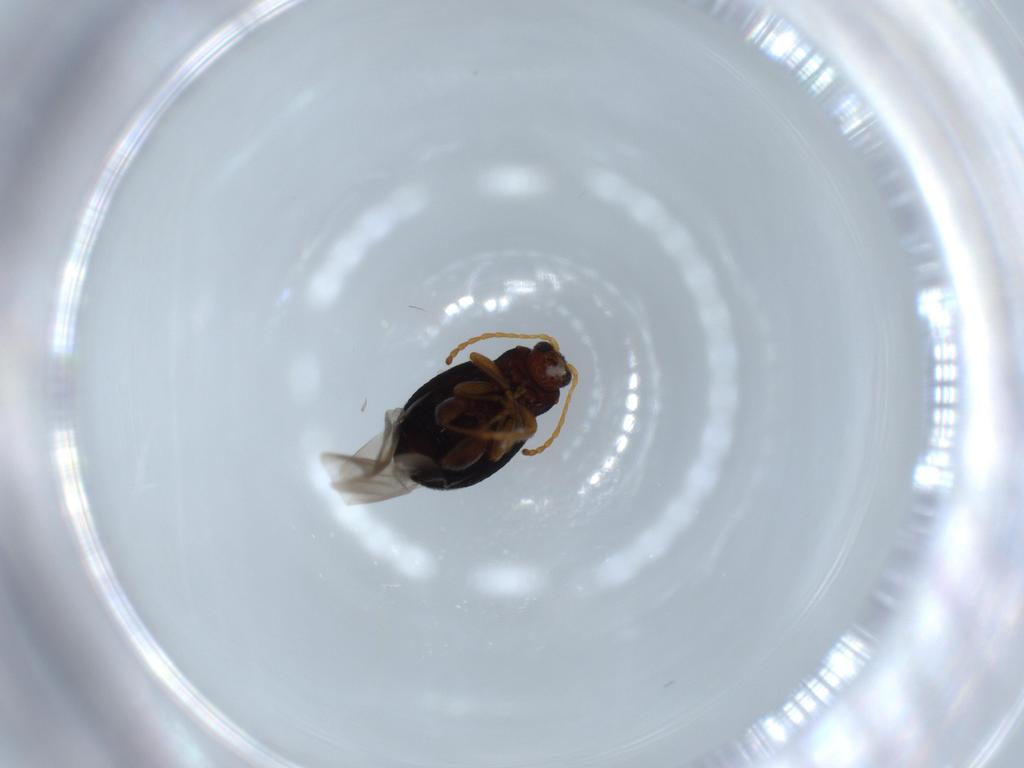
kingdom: Animalia
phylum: Arthropoda
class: Insecta
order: Coleoptera
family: Chrysomelidae
